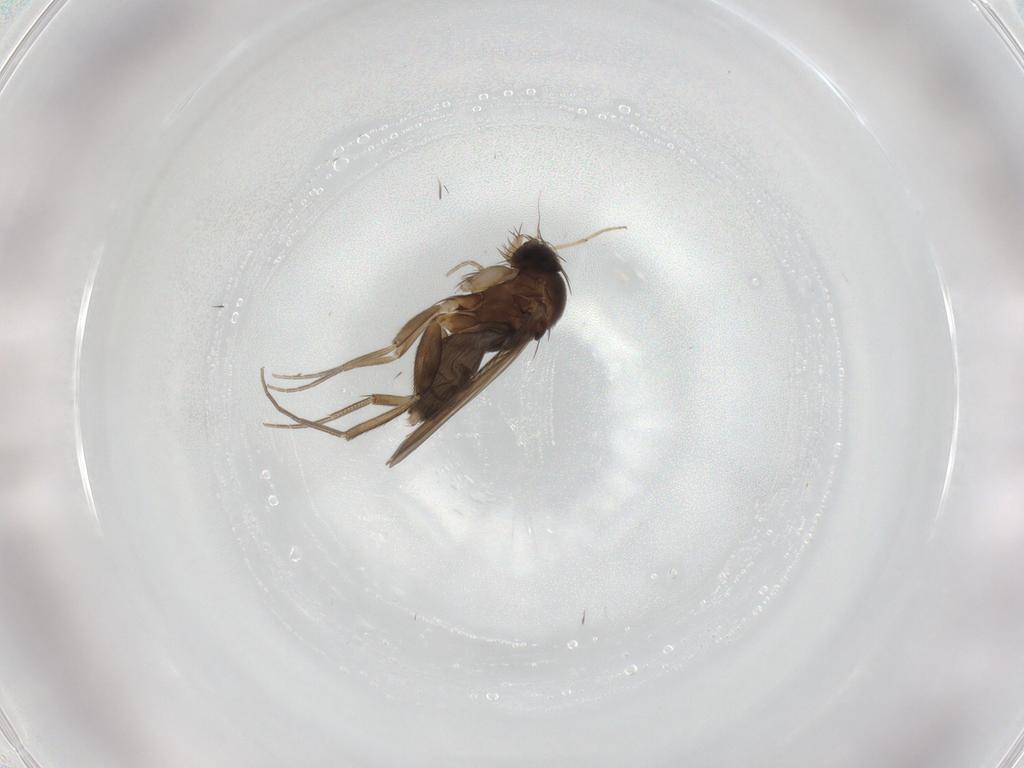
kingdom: Animalia
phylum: Arthropoda
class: Insecta
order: Diptera
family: Phoridae
